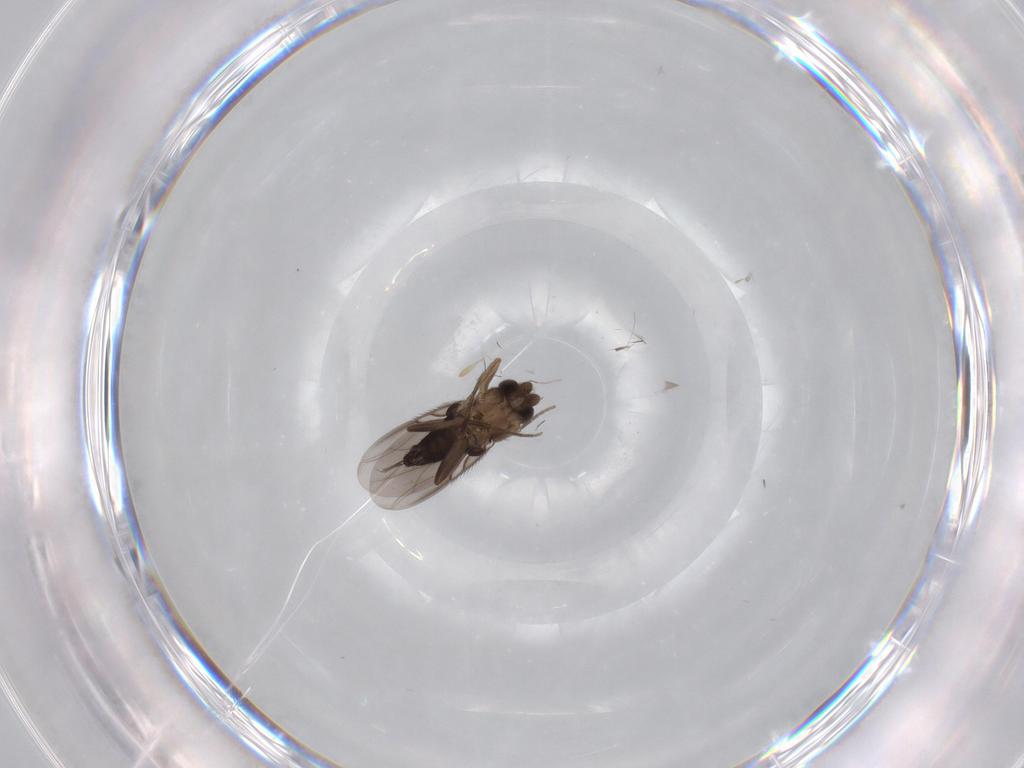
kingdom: Animalia
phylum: Arthropoda
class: Insecta
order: Diptera
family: Phoridae
